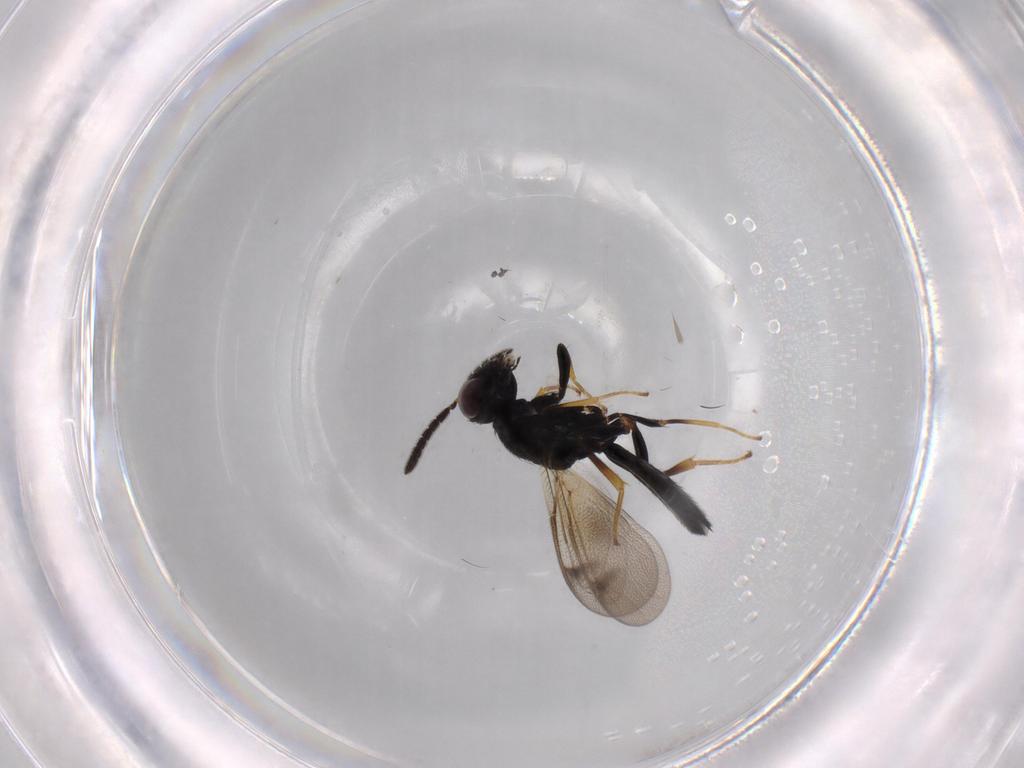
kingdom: Animalia
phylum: Arthropoda
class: Insecta
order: Hymenoptera
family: Pteromalidae
